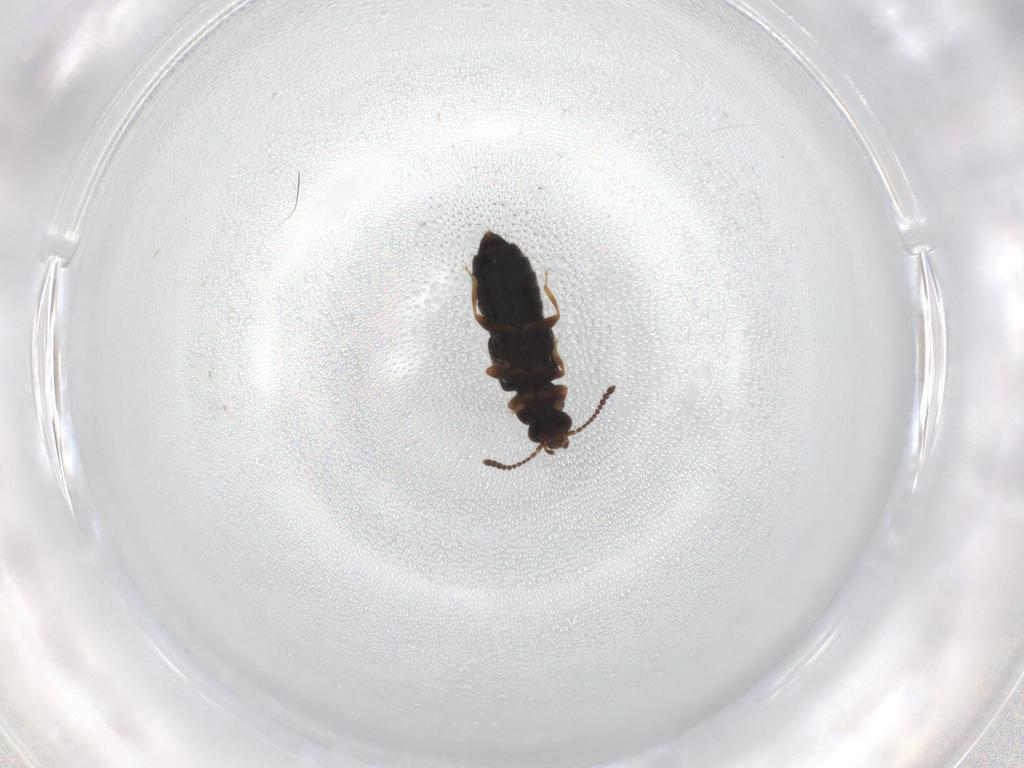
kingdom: Animalia
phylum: Arthropoda
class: Insecta
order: Coleoptera
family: Staphylinidae
